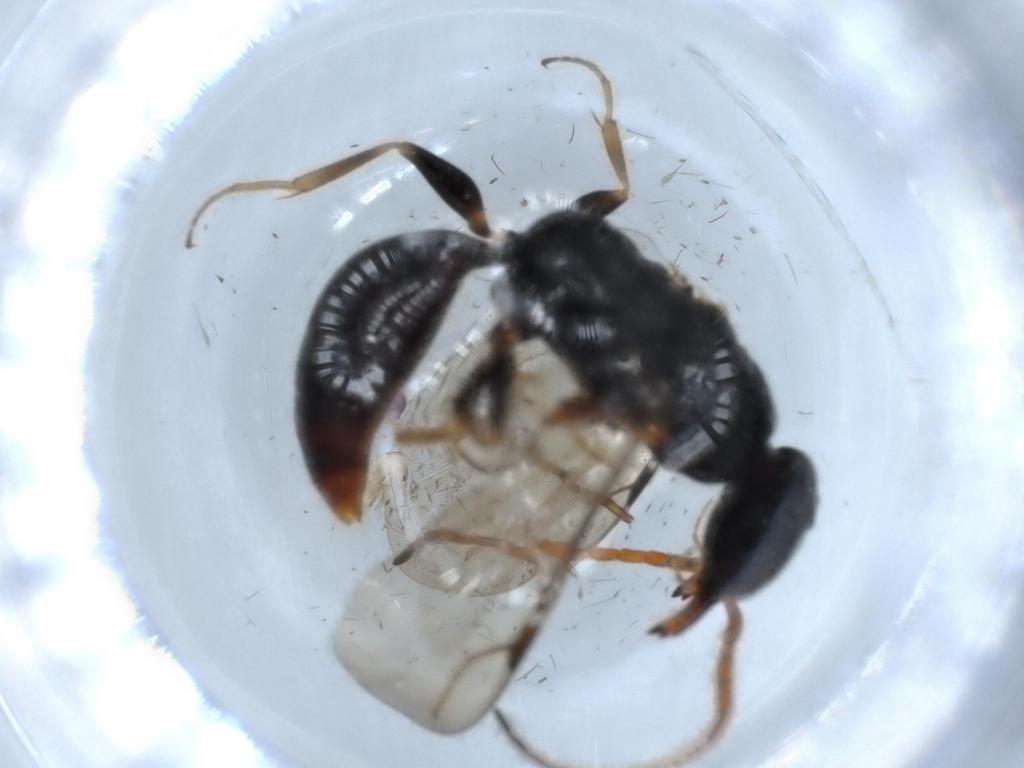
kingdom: Animalia
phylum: Arthropoda
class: Insecta
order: Hymenoptera
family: Bethylidae
